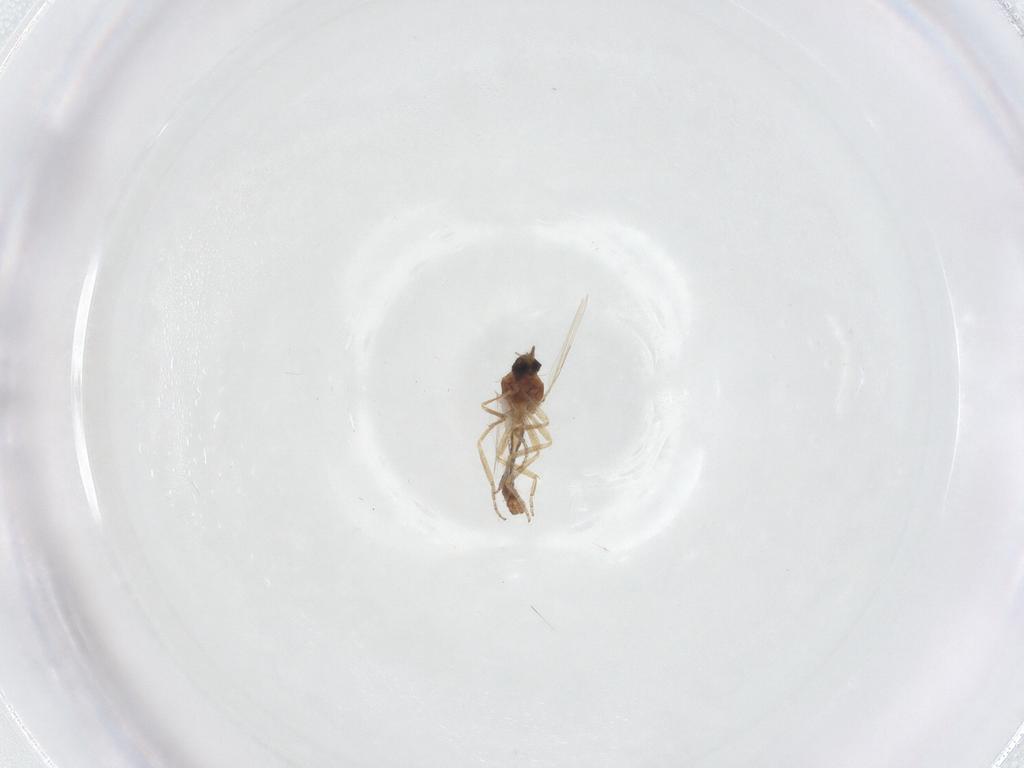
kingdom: Animalia
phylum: Arthropoda
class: Insecta
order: Diptera
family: Ceratopogonidae
